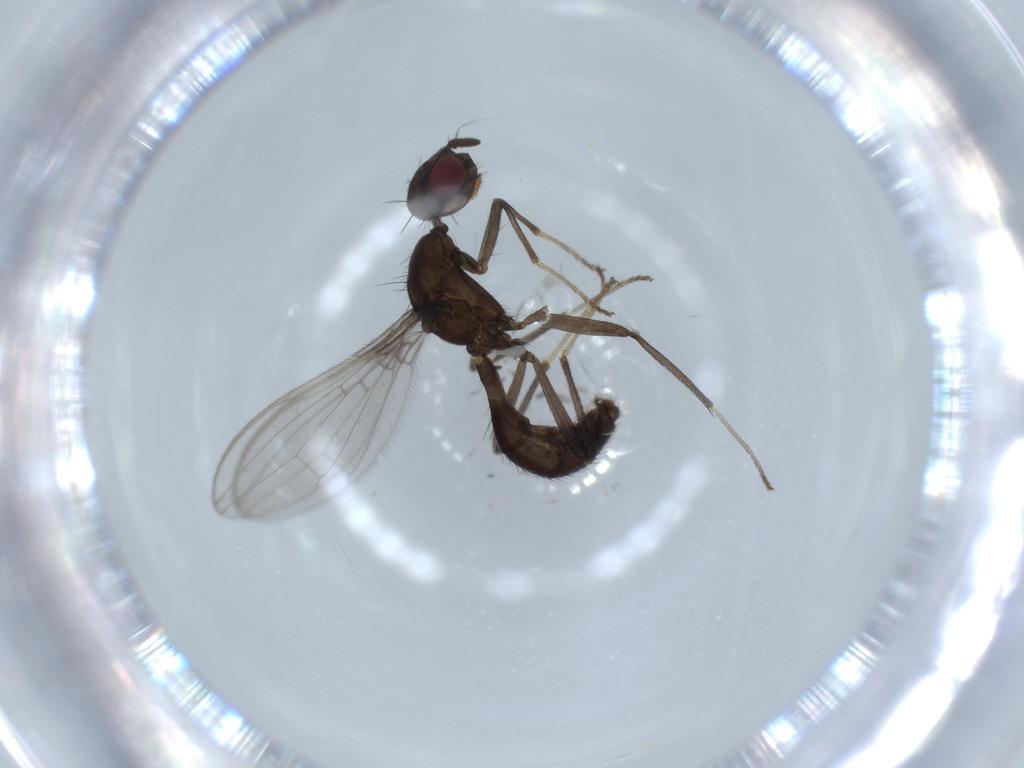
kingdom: Animalia
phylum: Arthropoda
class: Insecta
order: Diptera
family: Richardiidae
